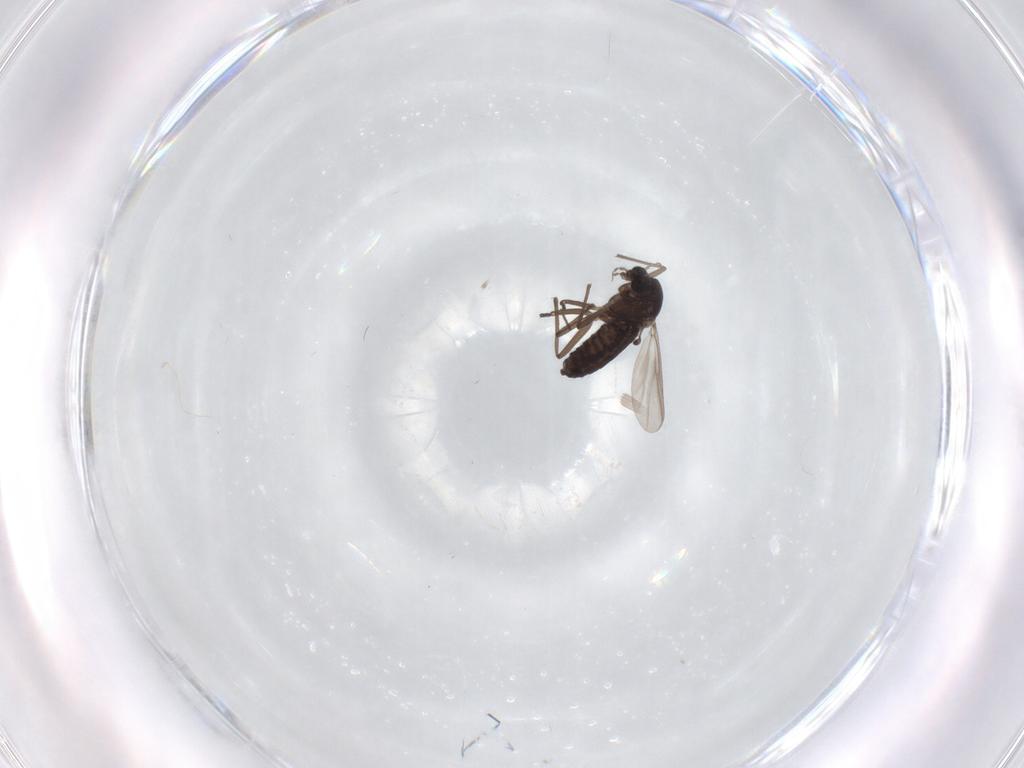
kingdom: Animalia
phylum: Arthropoda
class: Insecta
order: Diptera
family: Chironomidae
